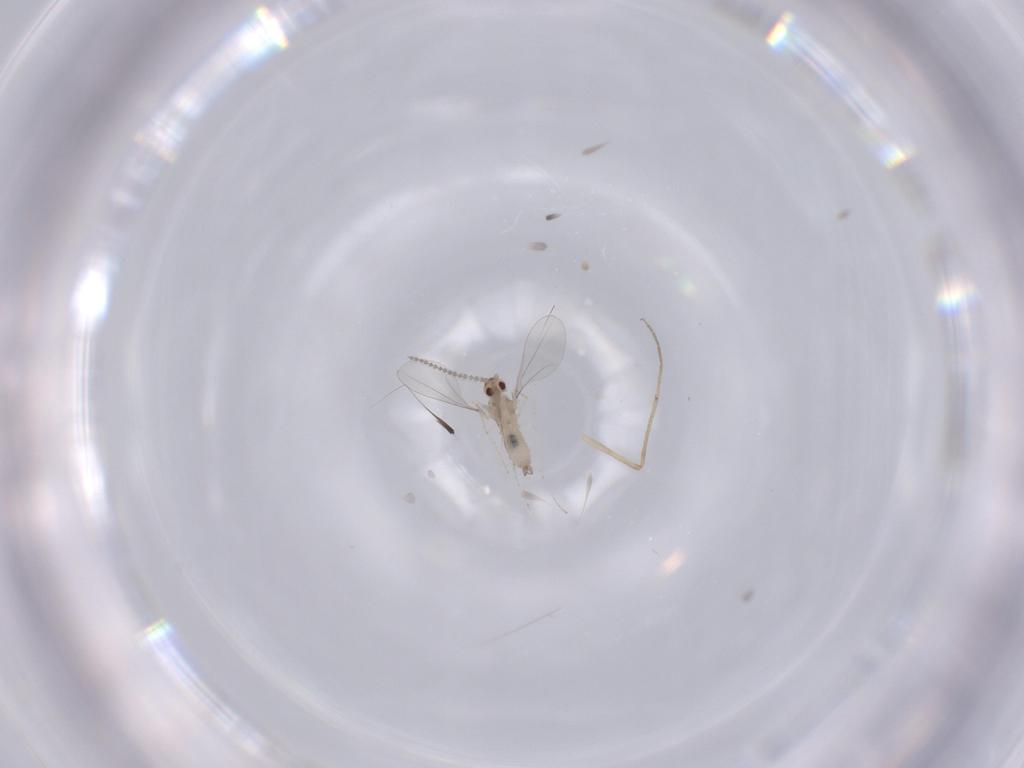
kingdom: Animalia
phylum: Arthropoda
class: Insecta
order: Diptera
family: Cecidomyiidae
